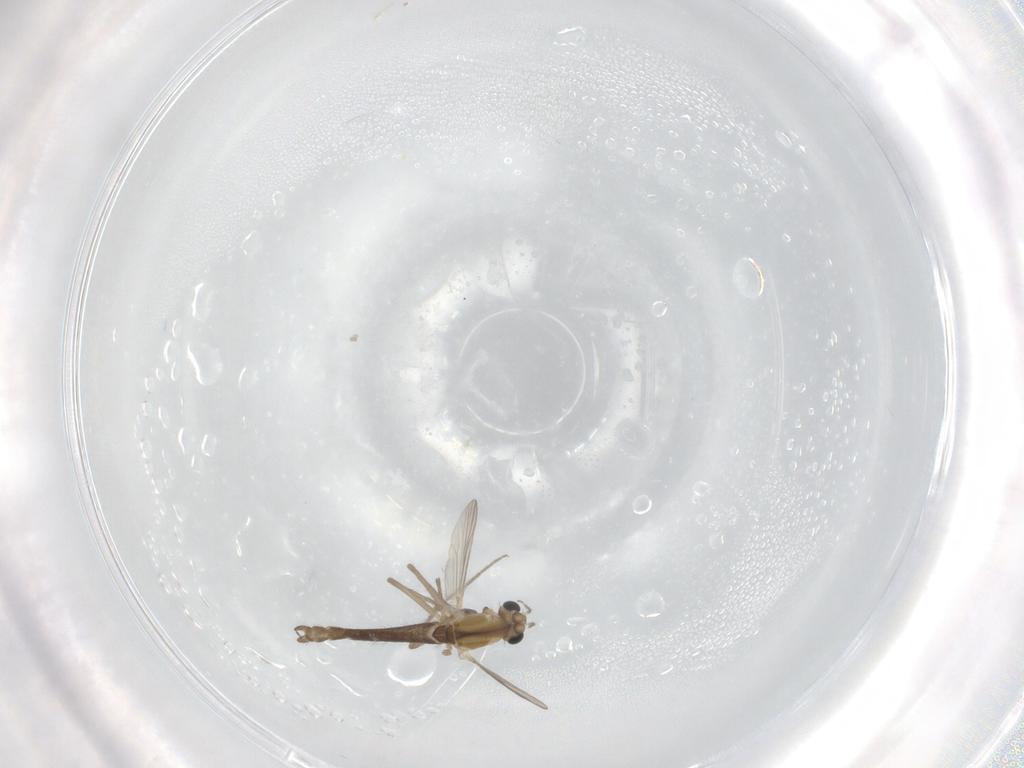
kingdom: Animalia
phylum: Arthropoda
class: Insecta
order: Diptera
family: Chironomidae
